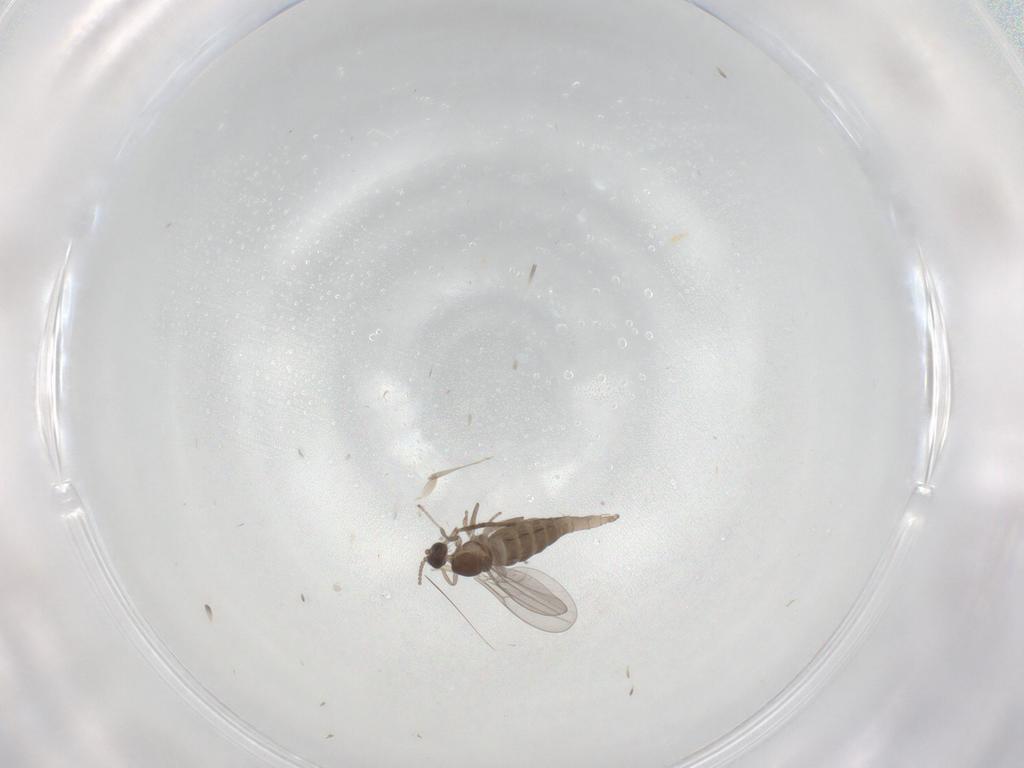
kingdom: Animalia
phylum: Arthropoda
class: Insecta
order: Diptera
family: Cecidomyiidae
